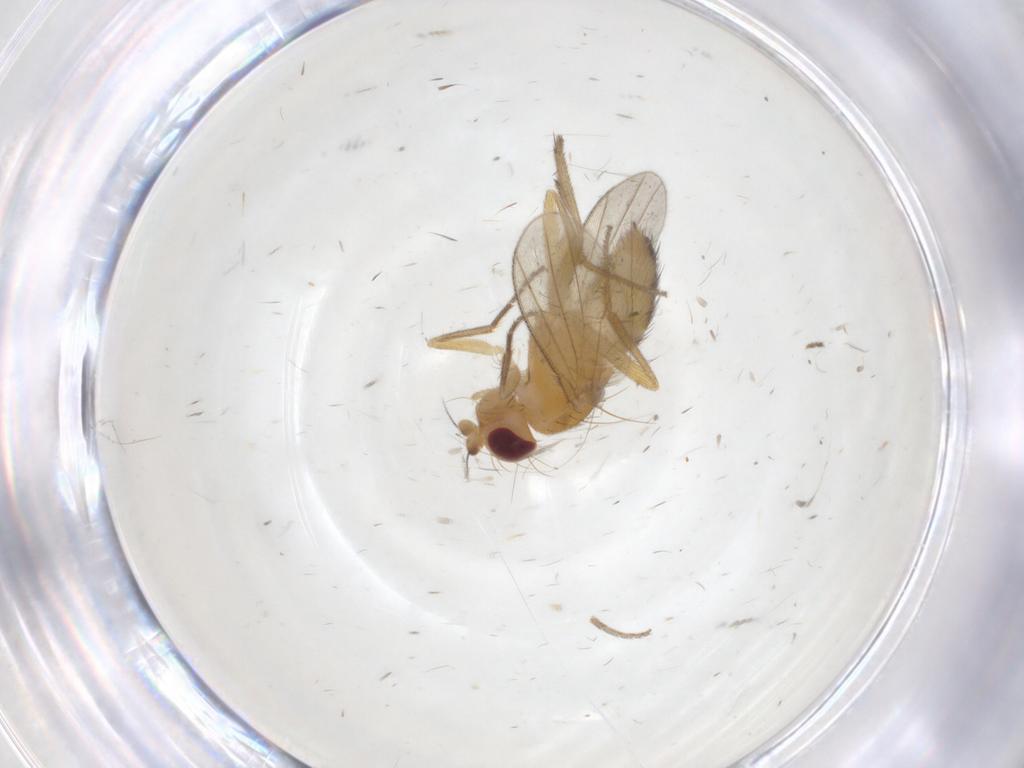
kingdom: Animalia
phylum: Arthropoda
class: Insecta
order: Diptera
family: Clusiidae
